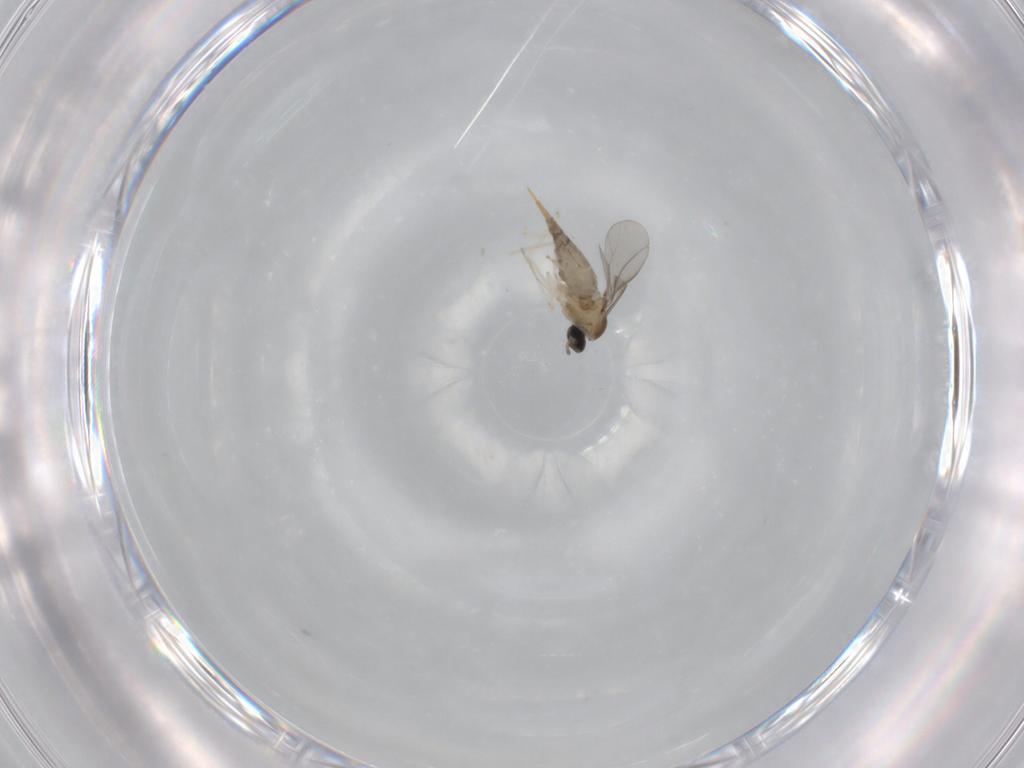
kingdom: Animalia
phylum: Arthropoda
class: Insecta
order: Diptera
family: Cecidomyiidae
